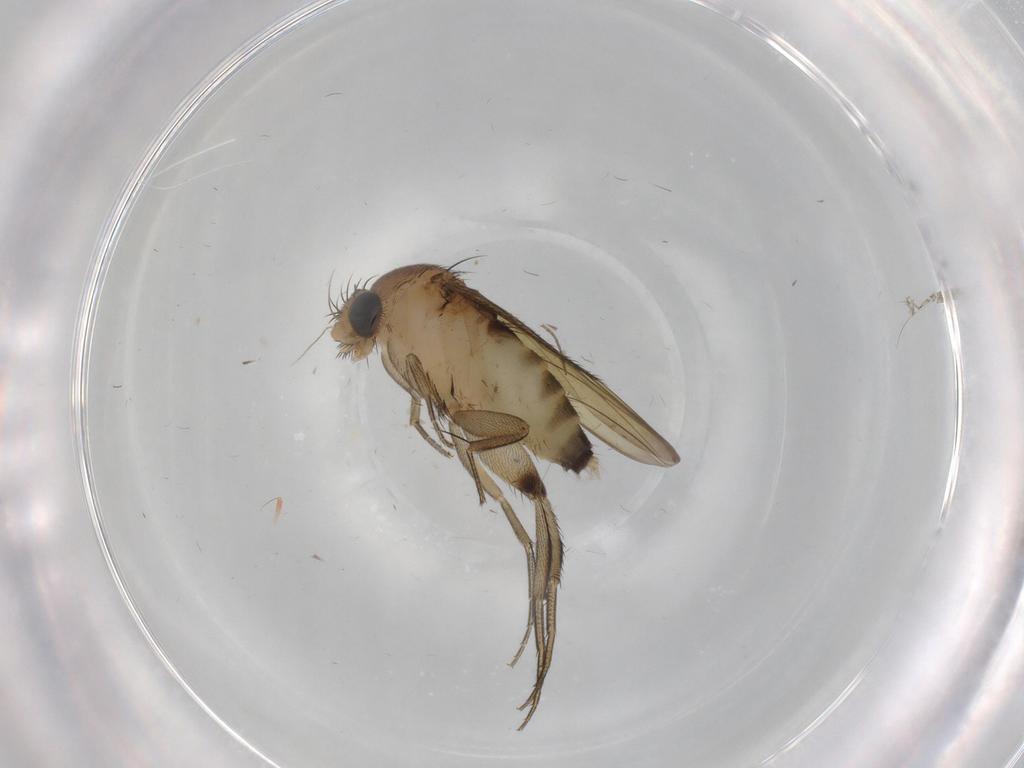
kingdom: Animalia
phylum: Arthropoda
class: Insecta
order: Diptera
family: Phoridae
